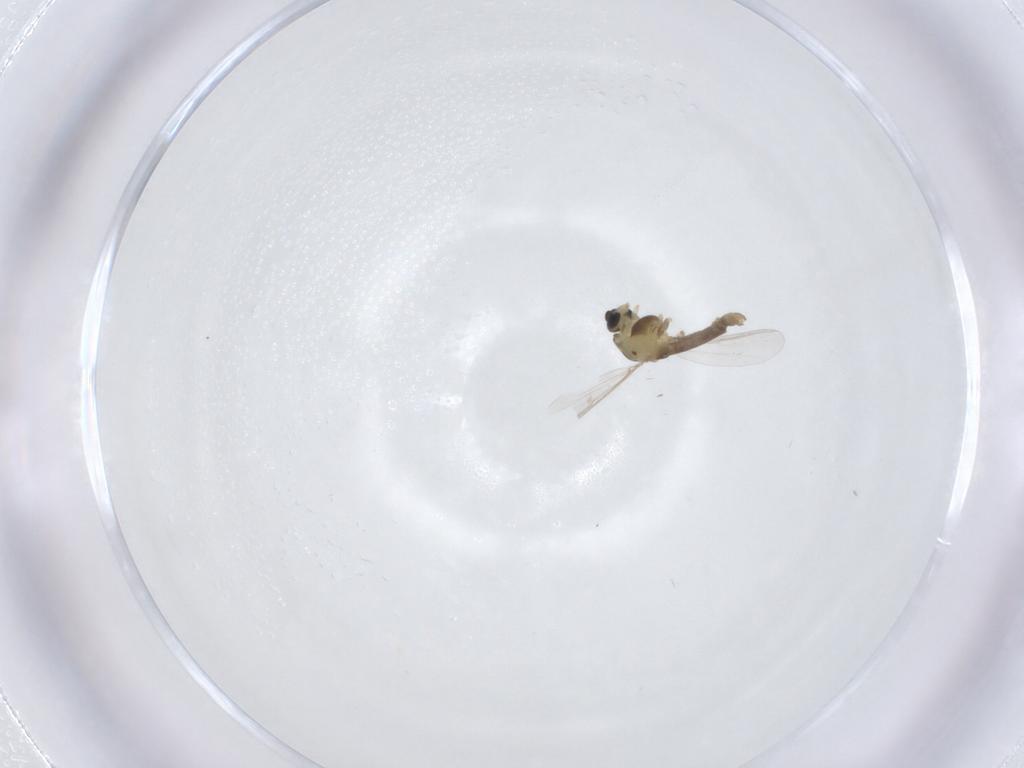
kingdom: Animalia
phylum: Arthropoda
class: Insecta
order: Diptera
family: Chironomidae
